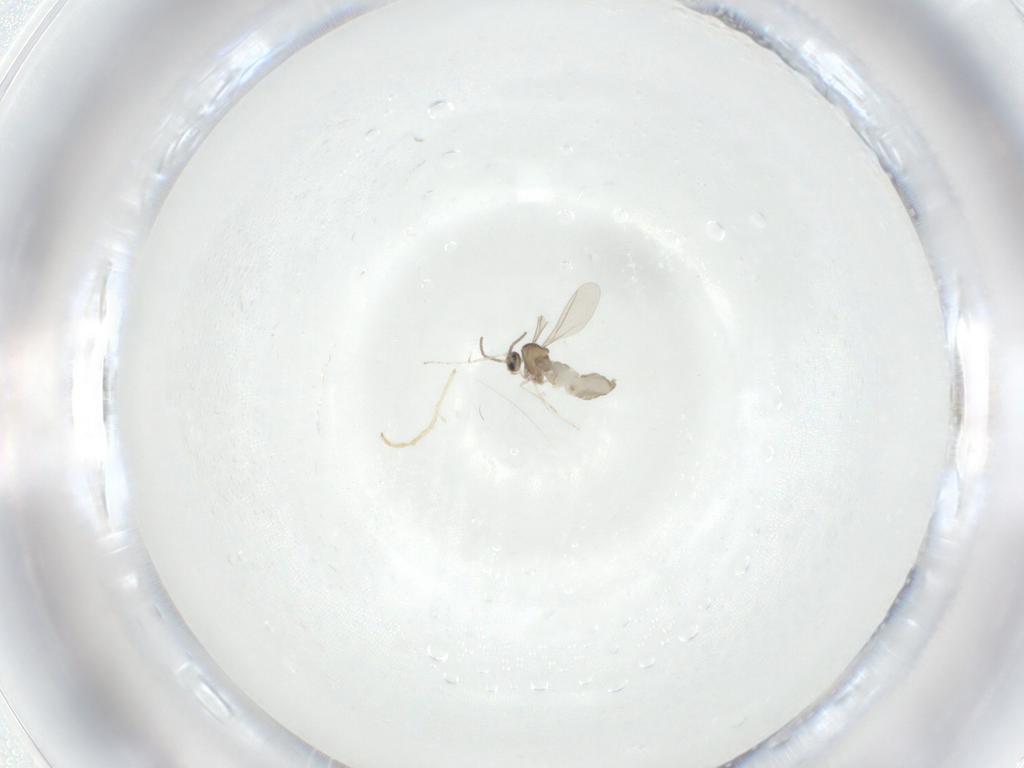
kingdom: Animalia
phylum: Arthropoda
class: Insecta
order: Diptera
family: Cecidomyiidae
